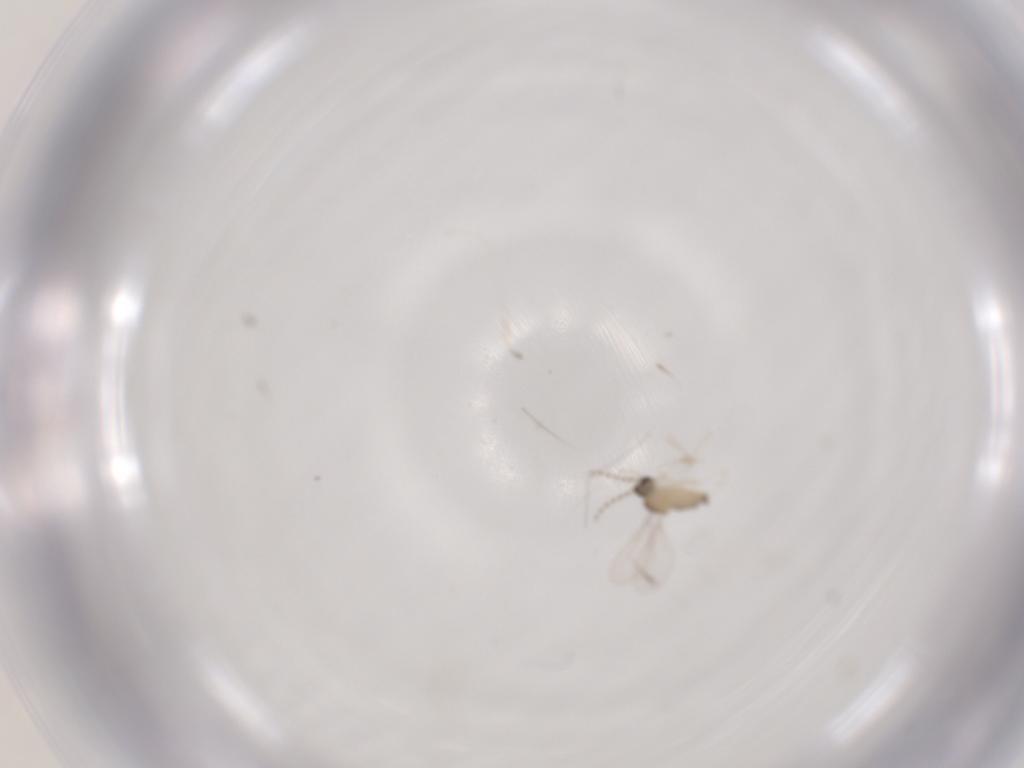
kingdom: Animalia
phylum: Arthropoda
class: Insecta
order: Diptera
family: Cecidomyiidae
